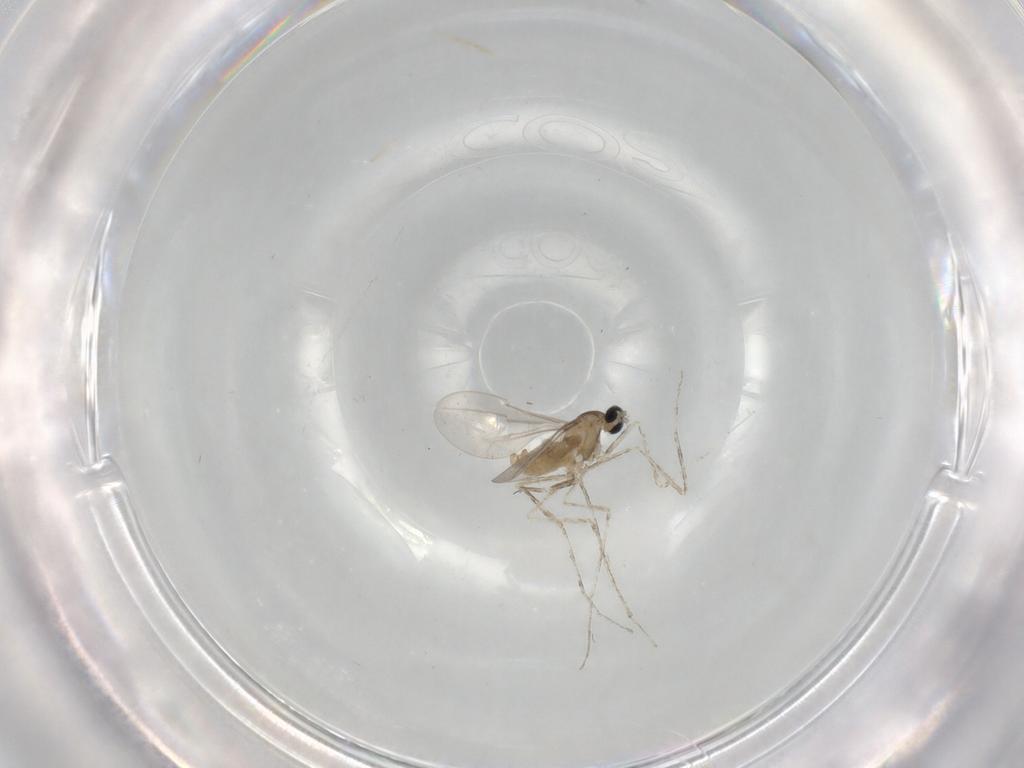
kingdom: Animalia
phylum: Arthropoda
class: Insecta
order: Diptera
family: Cecidomyiidae
